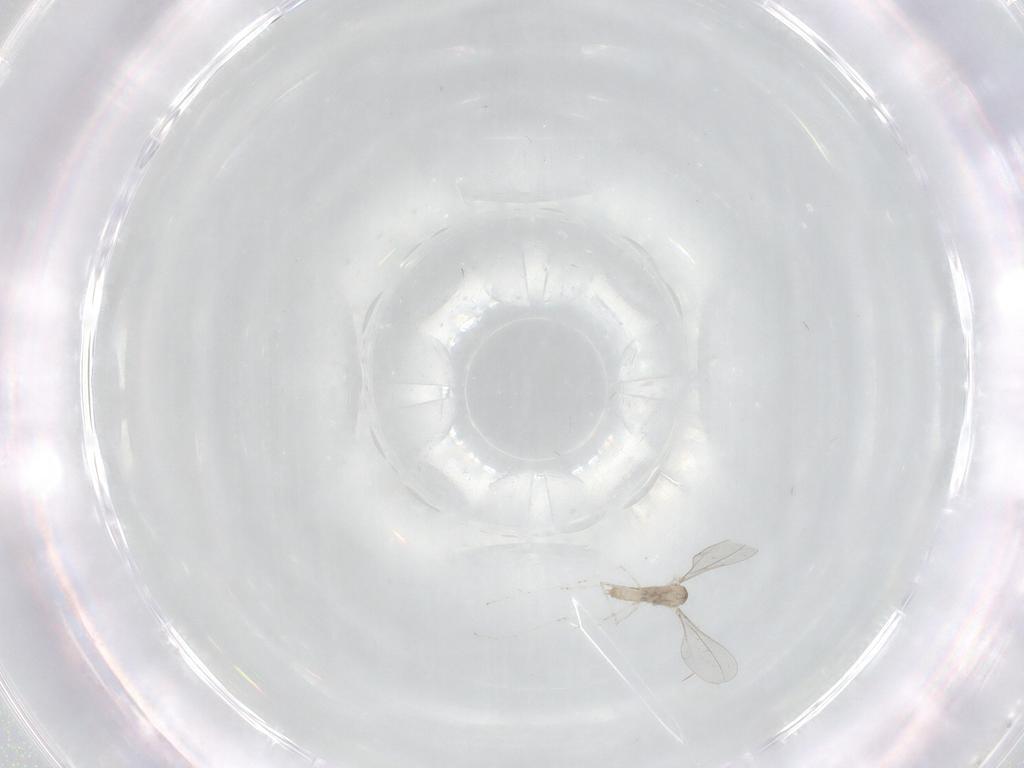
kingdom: Animalia
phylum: Arthropoda
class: Insecta
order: Diptera
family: Cecidomyiidae
